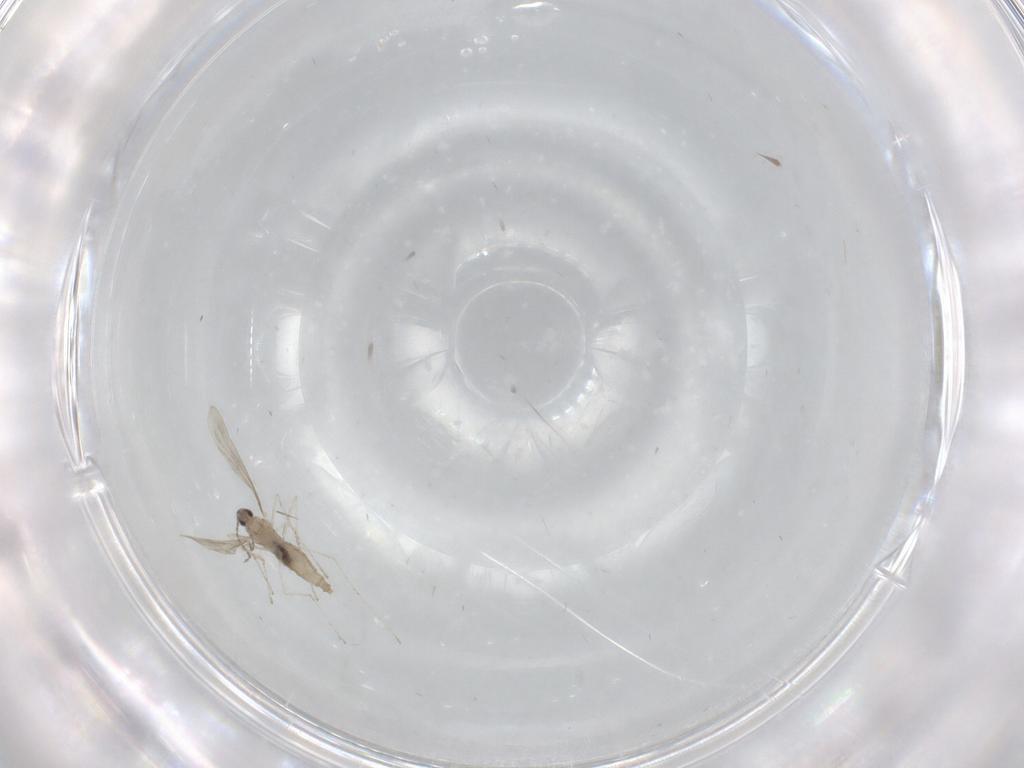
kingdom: Animalia
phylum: Arthropoda
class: Insecta
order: Diptera
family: Cecidomyiidae
